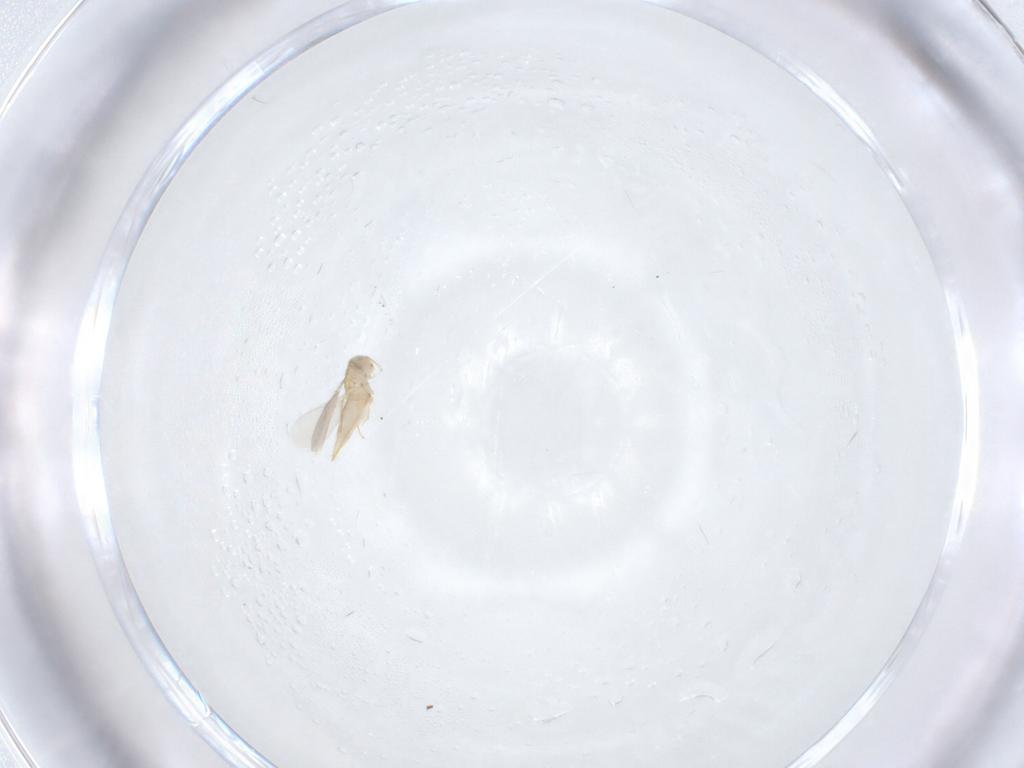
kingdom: Animalia
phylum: Arthropoda
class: Insecta
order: Hymenoptera
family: Aphelinidae
